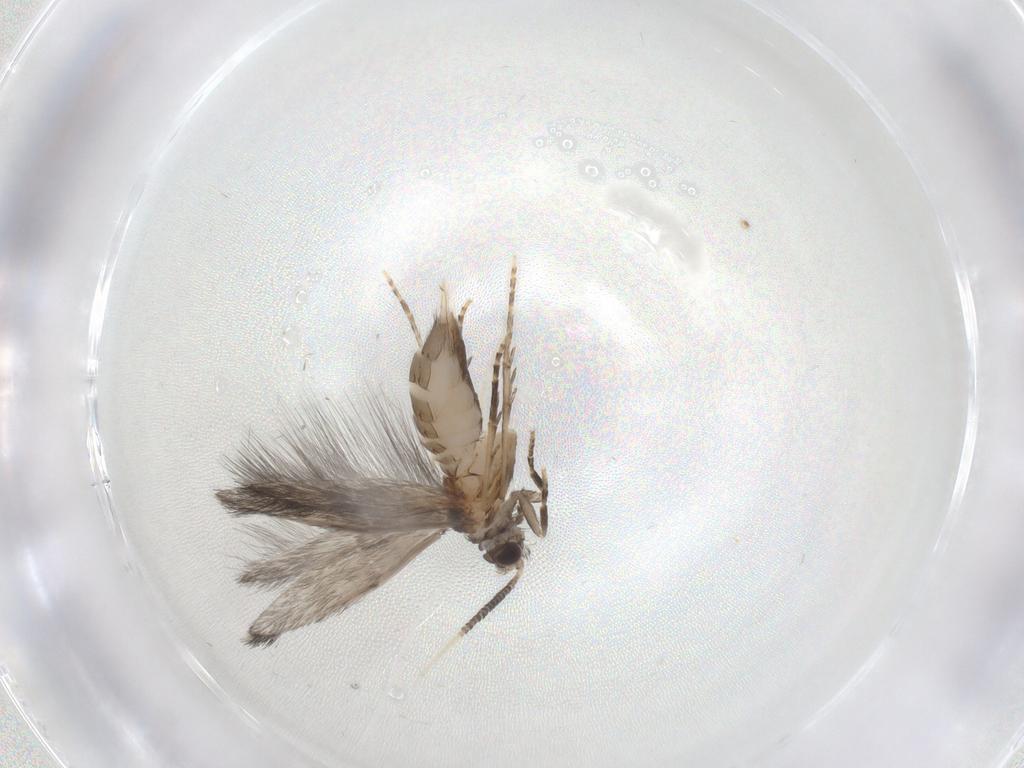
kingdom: Animalia
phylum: Arthropoda
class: Insecta
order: Trichoptera
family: Hydroptilidae
